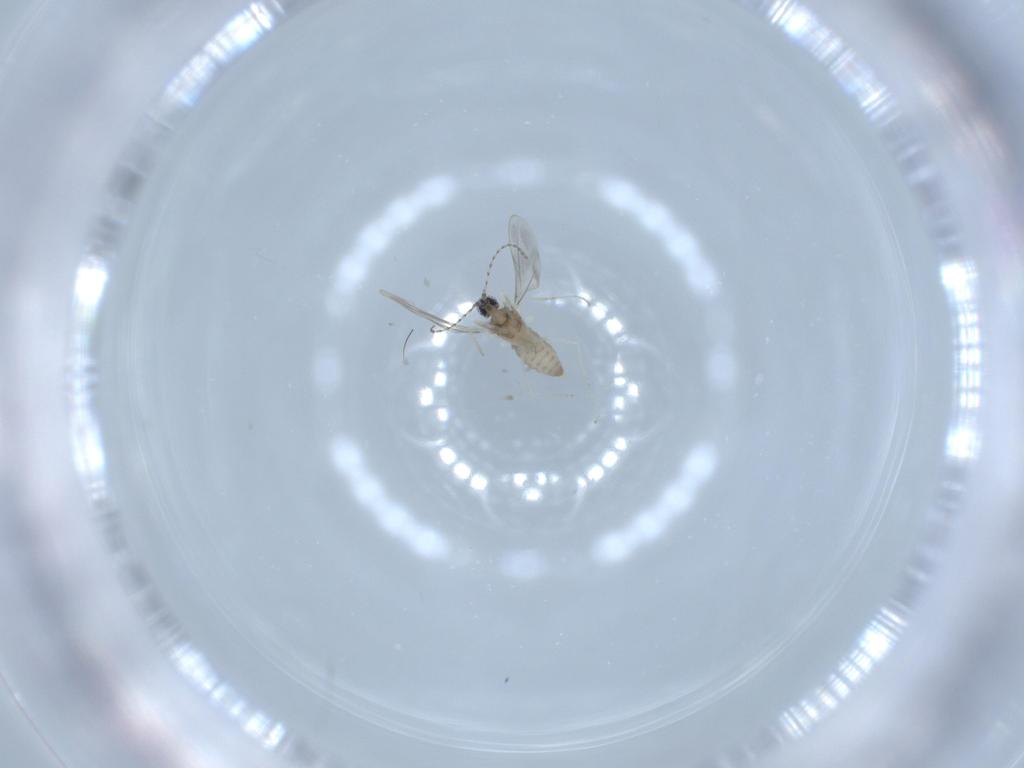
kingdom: Animalia
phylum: Arthropoda
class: Insecta
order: Diptera
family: Cecidomyiidae
